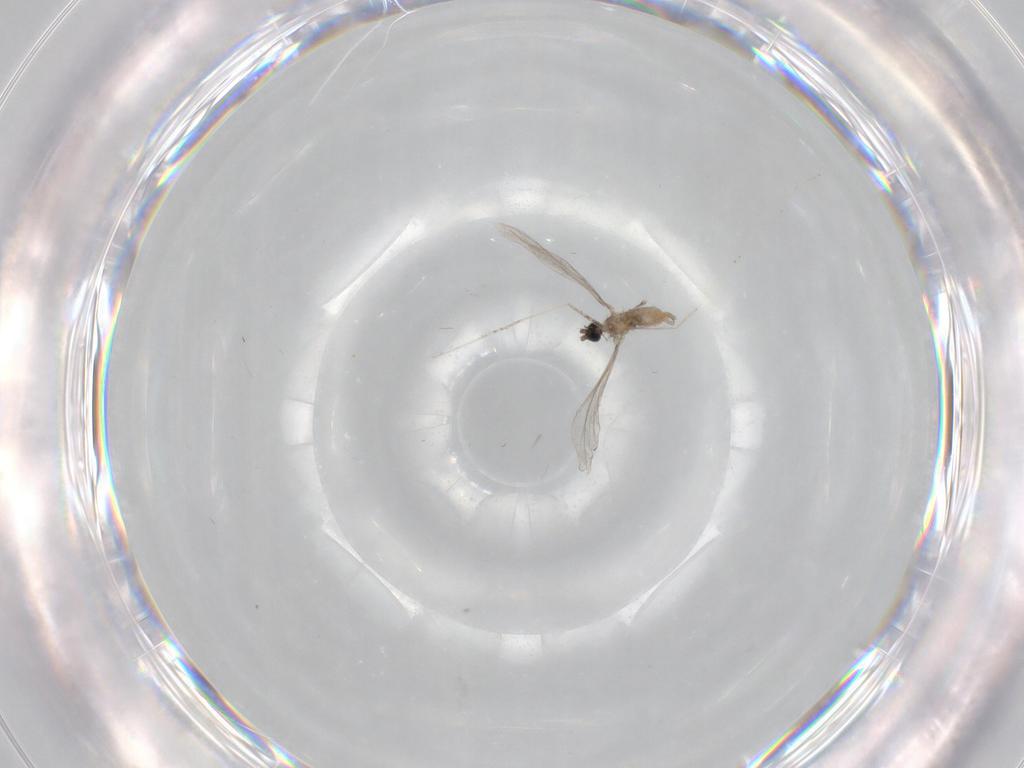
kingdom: Animalia
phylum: Arthropoda
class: Insecta
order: Diptera
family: Cecidomyiidae
